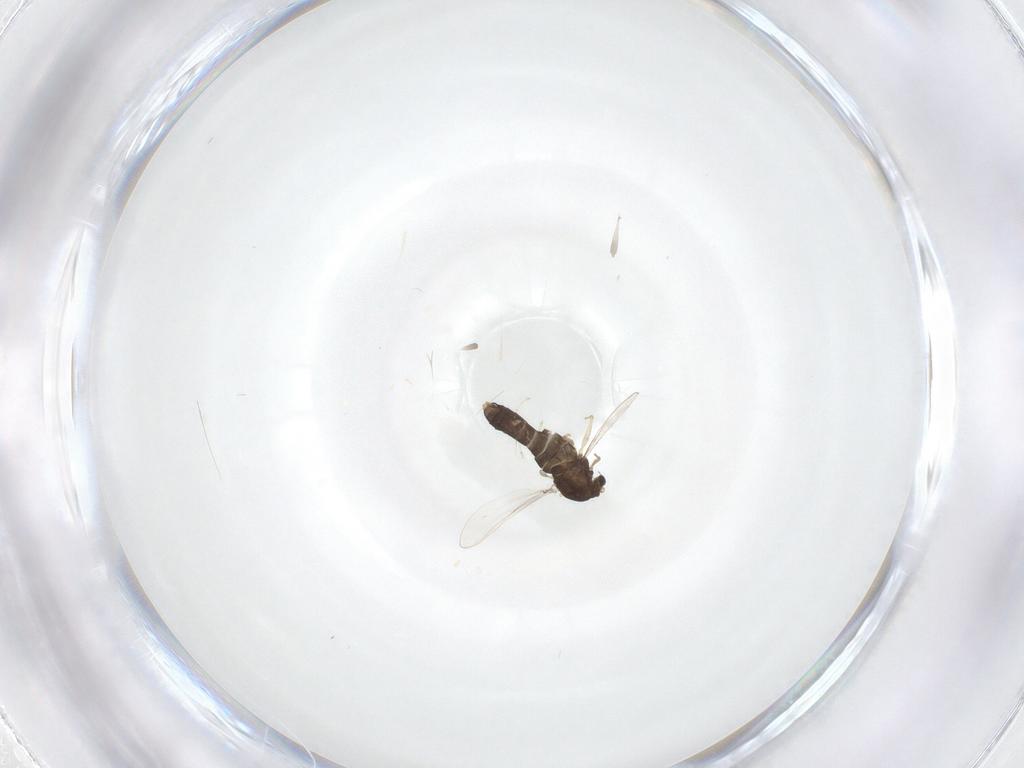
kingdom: Animalia
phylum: Arthropoda
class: Insecta
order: Diptera
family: Chironomidae
